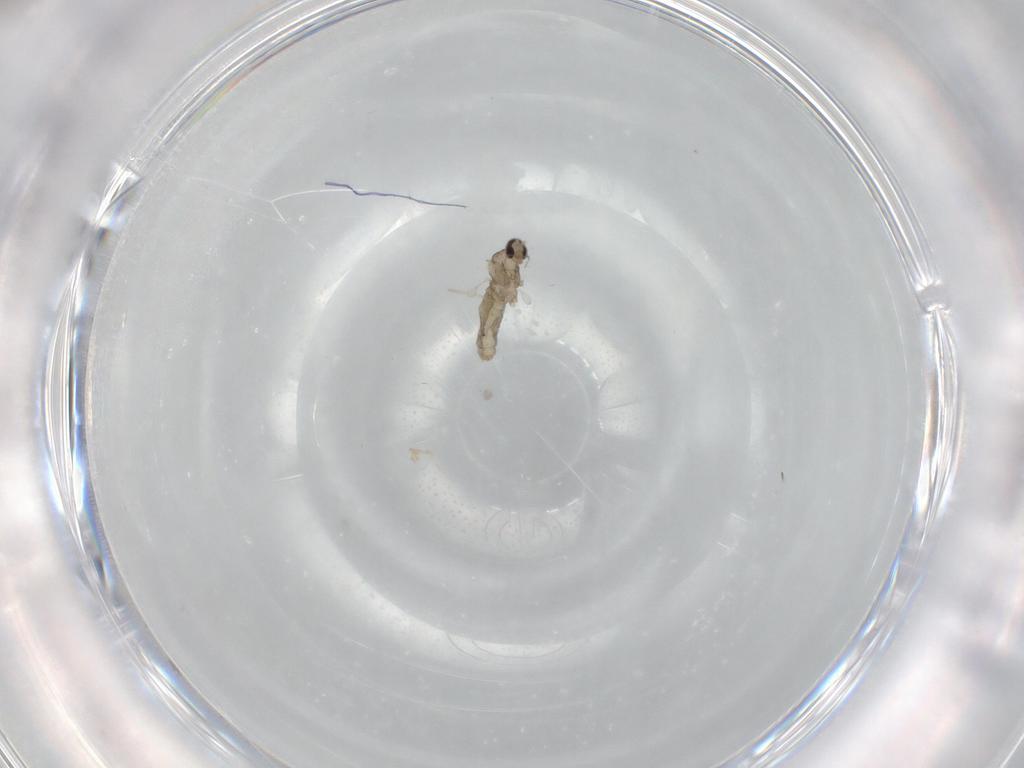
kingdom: Animalia
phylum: Arthropoda
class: Insecta
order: Diptera
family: Cecidomyiidae
